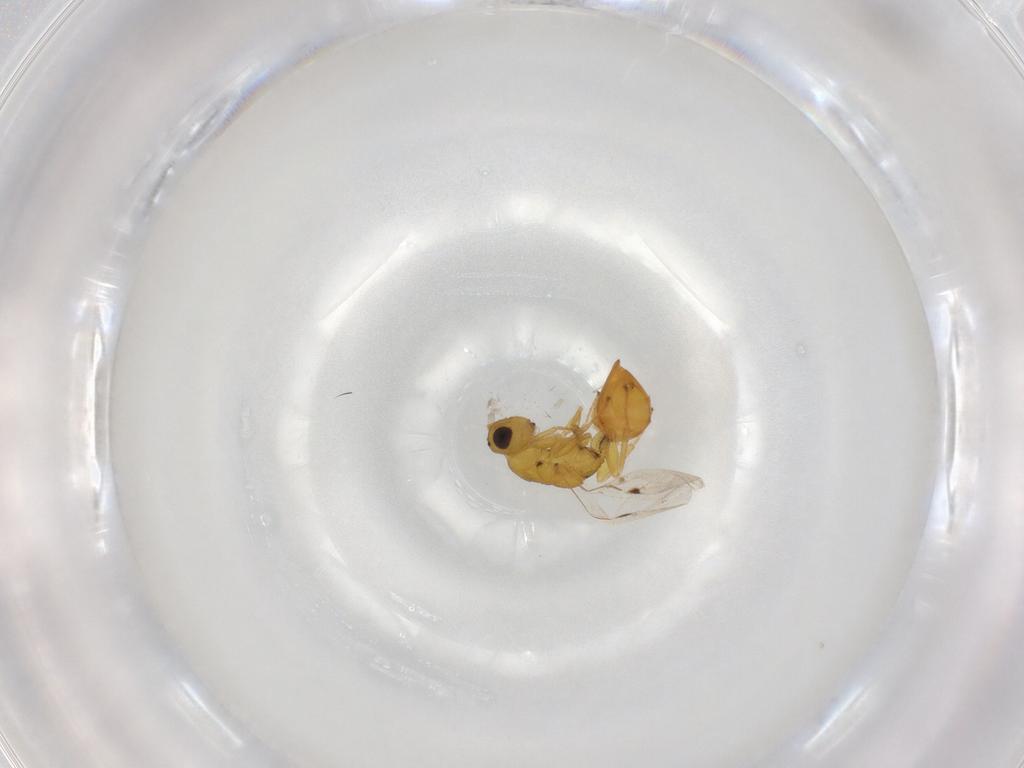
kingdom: Animalia
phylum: Arthropoda
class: Insecta
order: Hymenoptera
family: Eurytomidae
